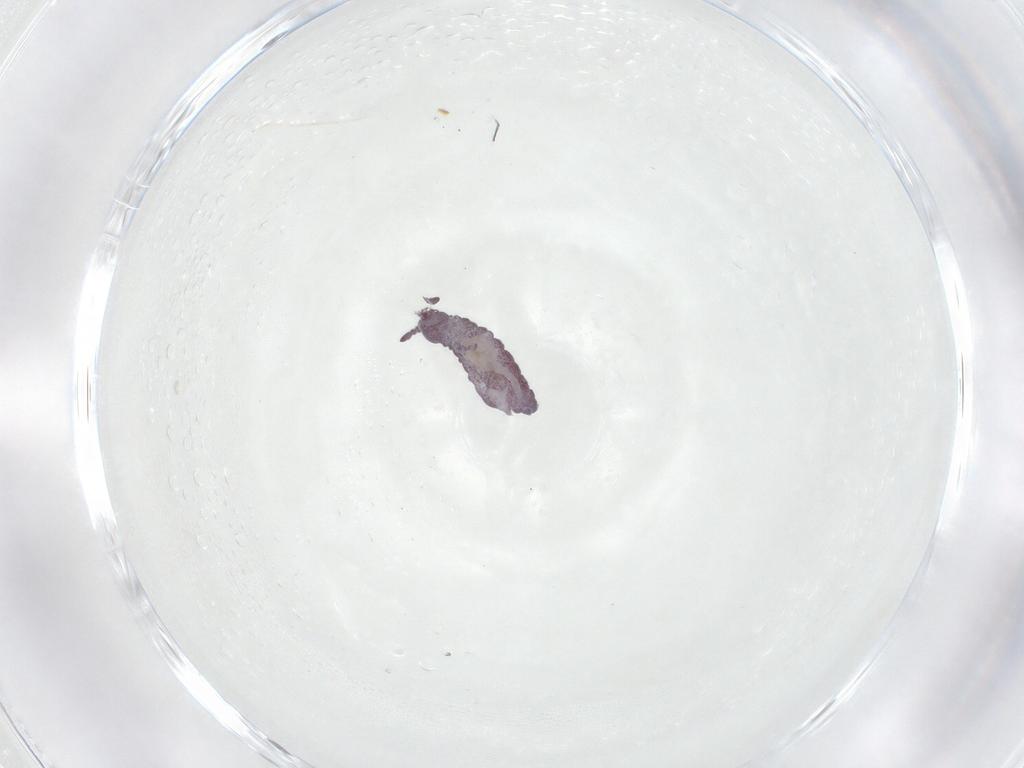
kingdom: Animalia
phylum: Arthropoda
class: Collembola
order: Poduromorpha
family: Hypogastruridae
